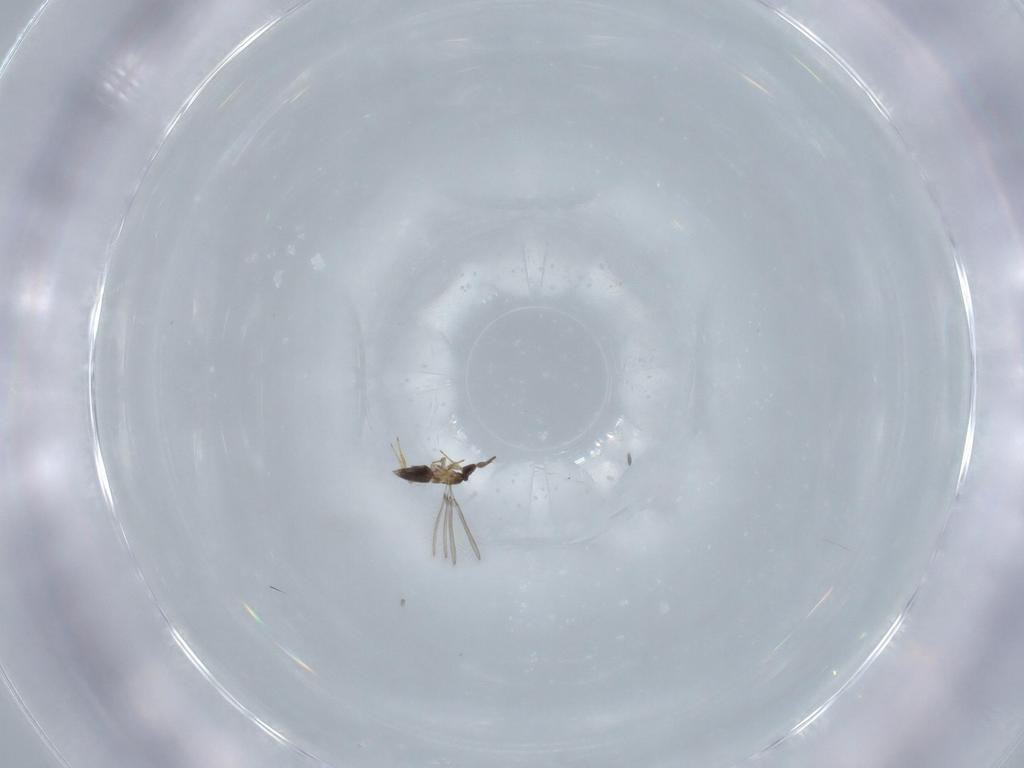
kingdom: Animalia
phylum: Arthropoda
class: Insecta
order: Hymenoptera
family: Mymaridae
